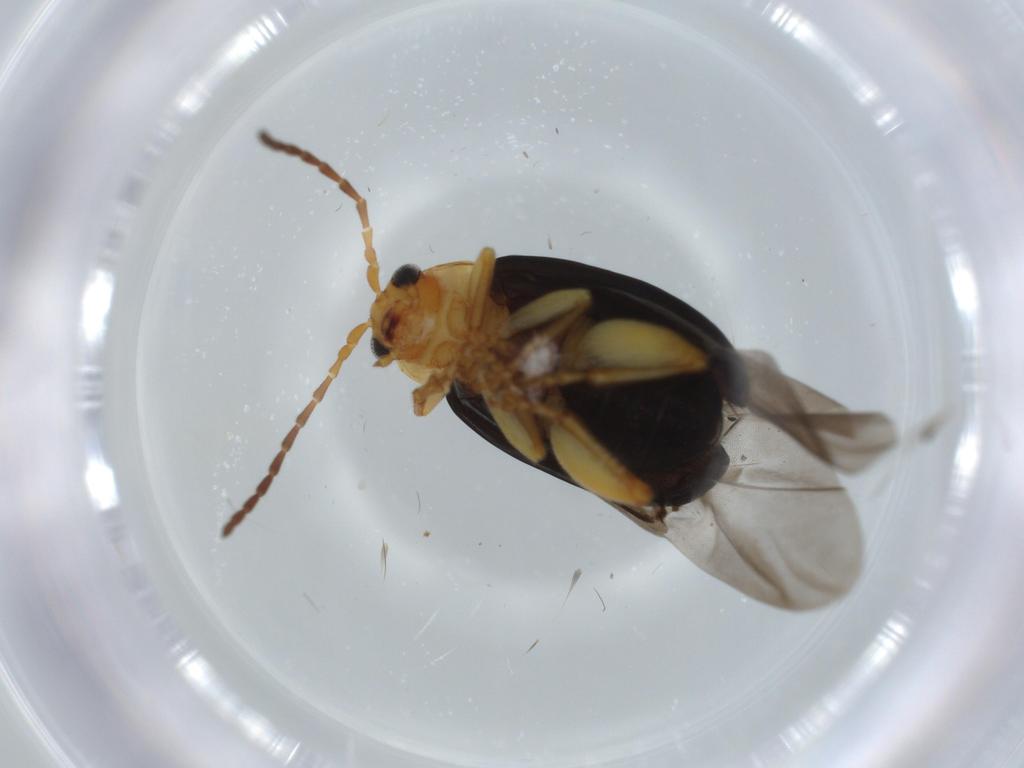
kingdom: Animalia
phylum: Arthropoda
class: Insecta
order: Coleoptera
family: Chrysomelidae
